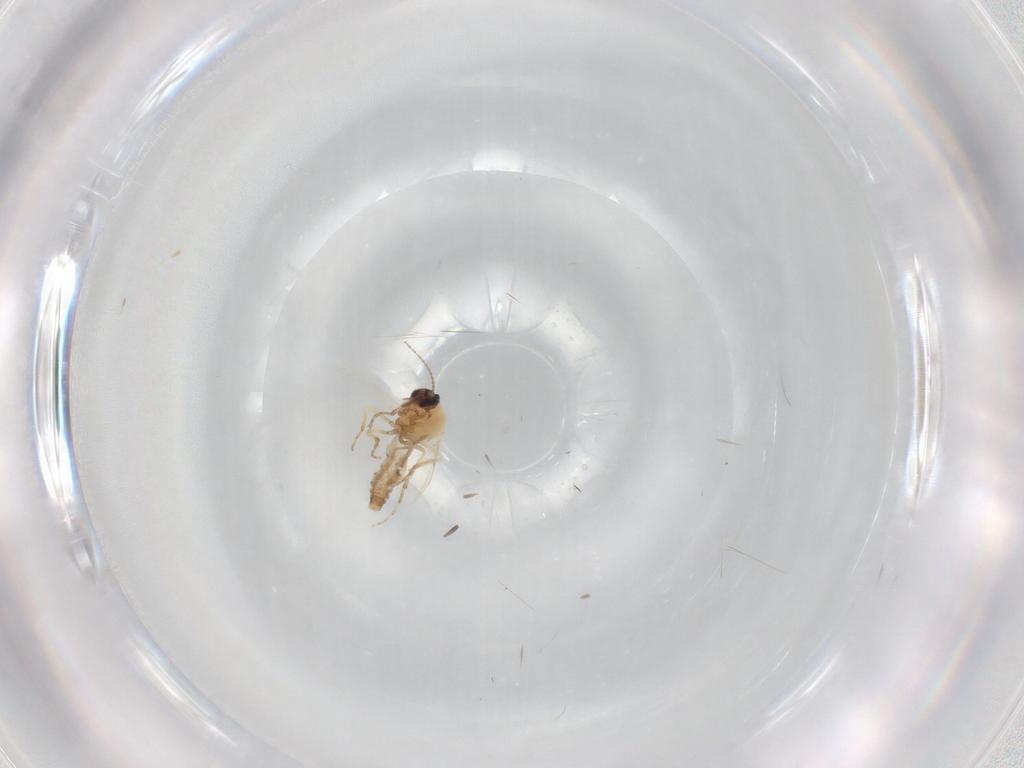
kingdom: Animalia
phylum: Arthropoda
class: Insecta
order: Diptera
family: Ceratopogonidae
